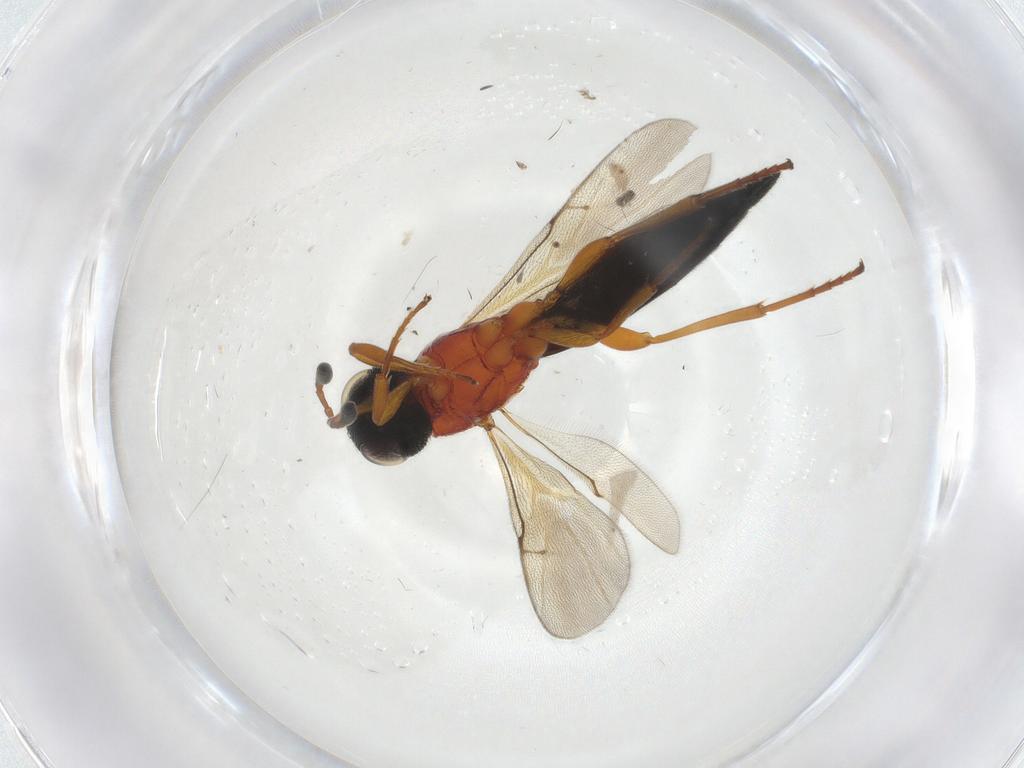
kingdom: Animalia
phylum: Arthropoda
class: Insecta
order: Hymenoptera
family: Scelionidae
